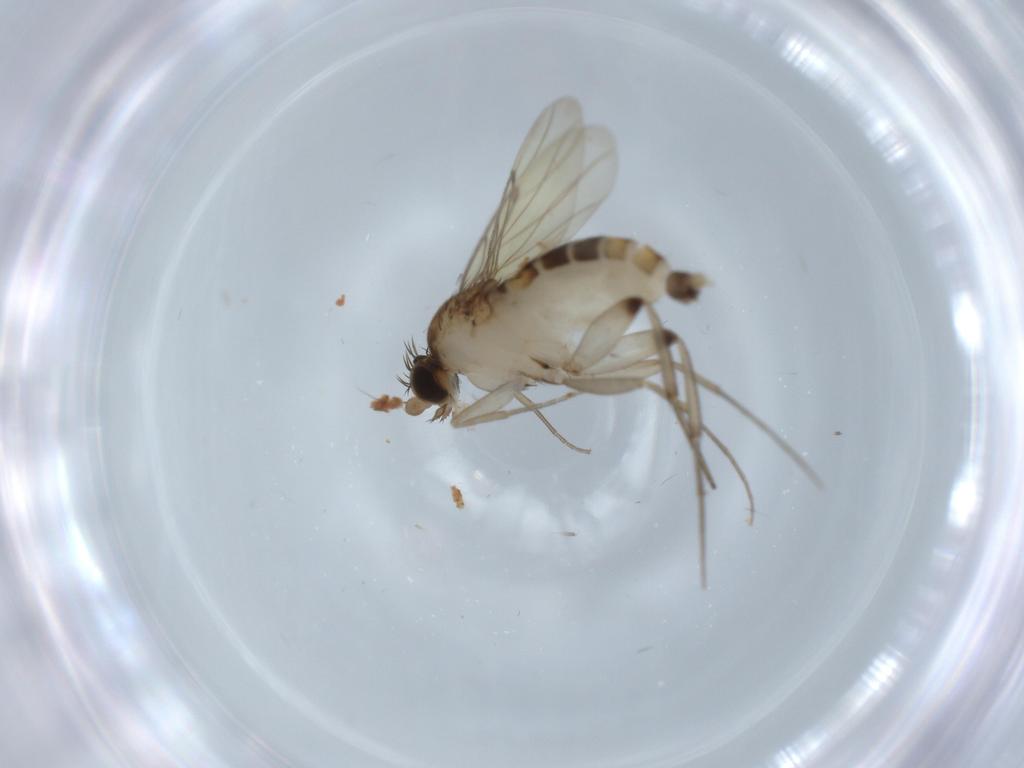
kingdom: Animalia
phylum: Arthropoda
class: Insecta
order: Diptera
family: Phoridae
